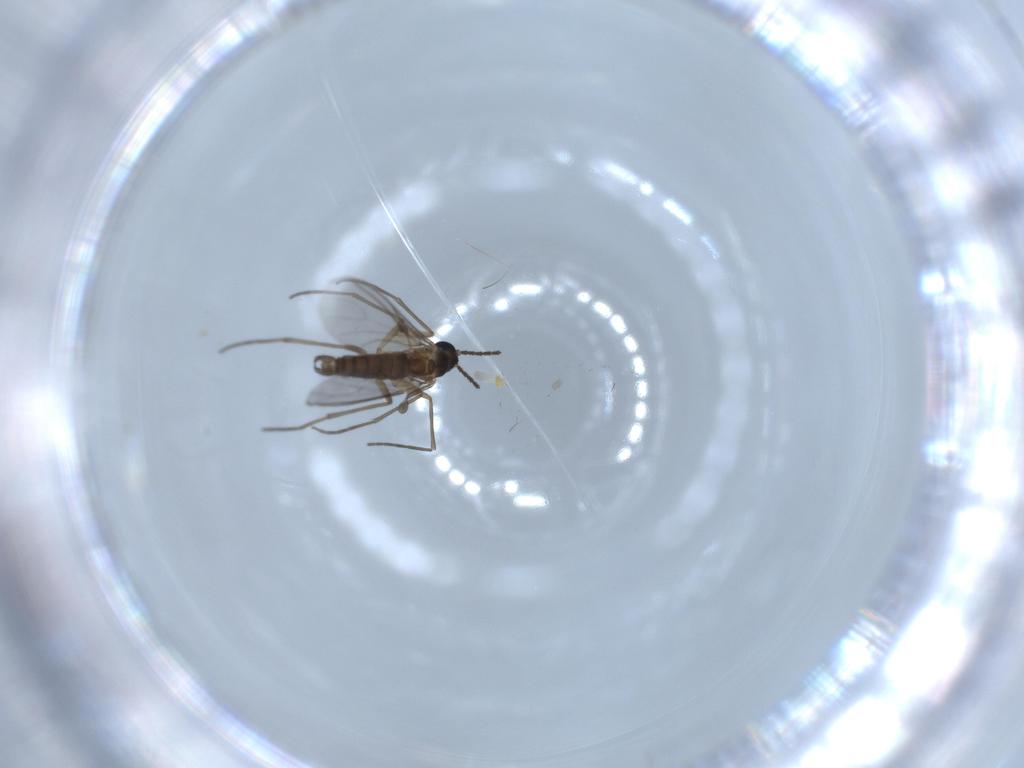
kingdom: Animalia
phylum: Arthropoda
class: Insecta
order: Diptera
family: Sciaridae
